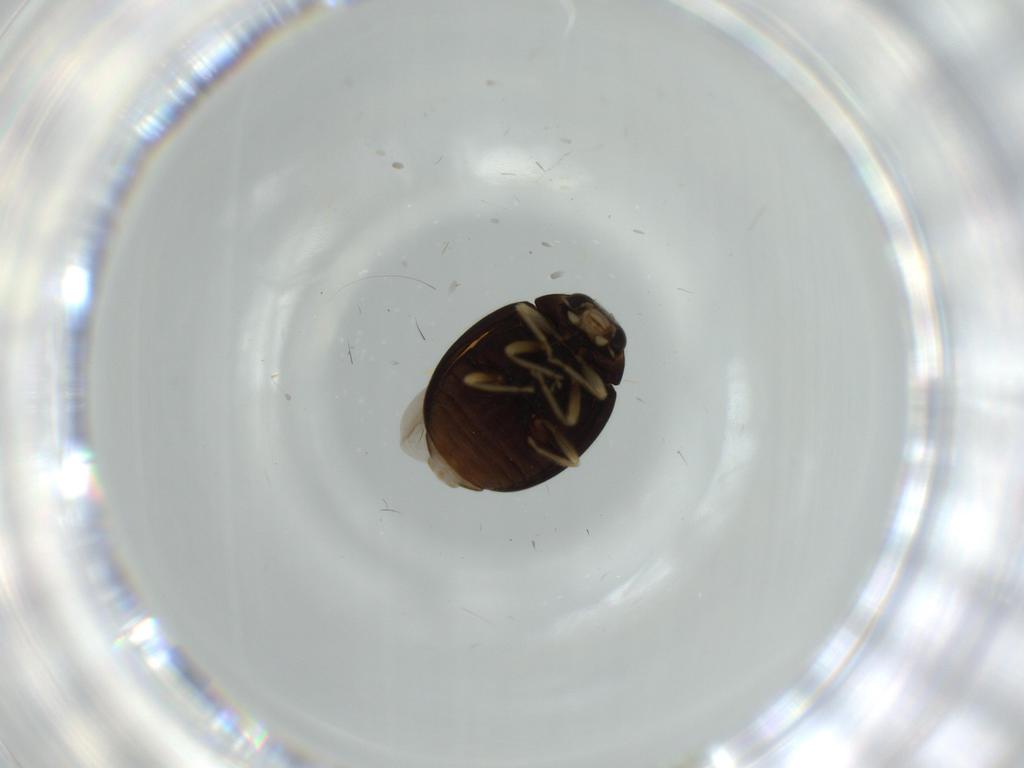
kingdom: Animalia
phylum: Arthropoda
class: Insecta
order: Coleoptera
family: Coccinellidae
